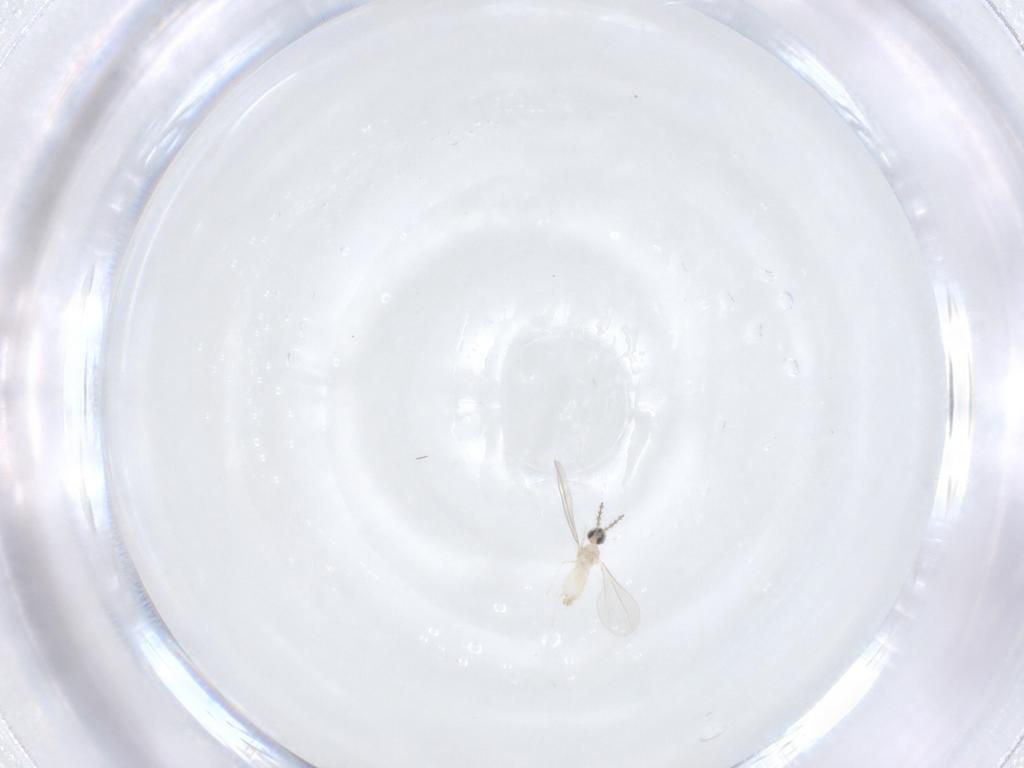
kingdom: Animalia
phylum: Arthropoda
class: Insecta
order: Diptera
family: Cecidomyiidae
